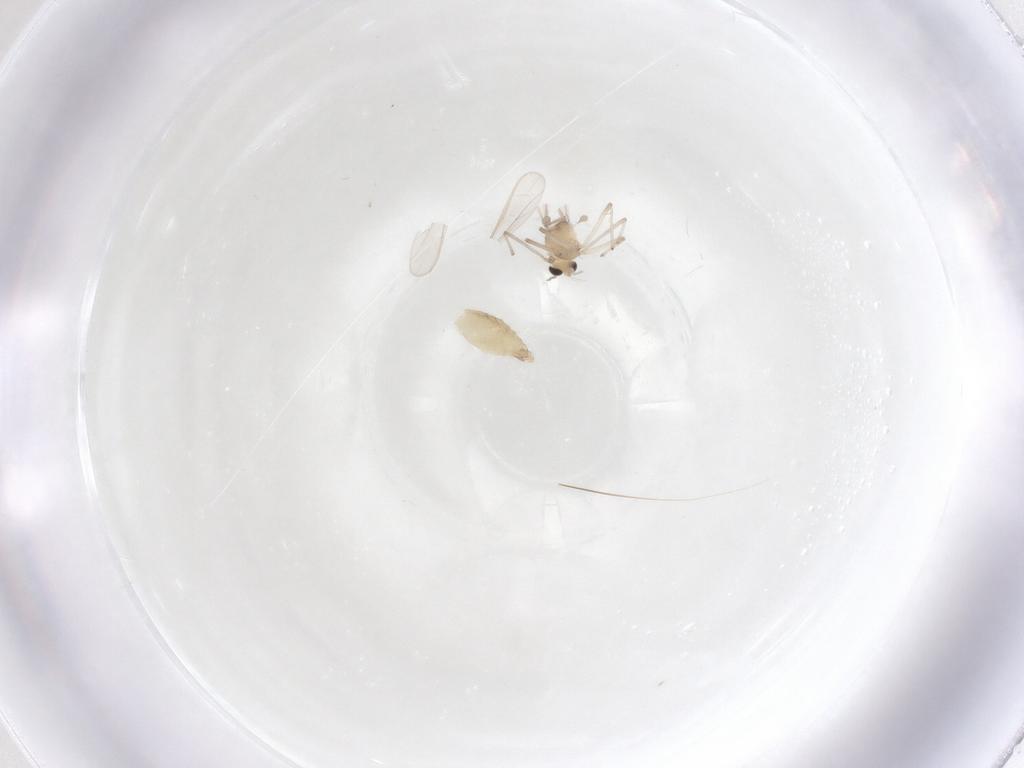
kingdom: Animalia
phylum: Arthropoda
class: Insecta
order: Diptera
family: Chironomidae
